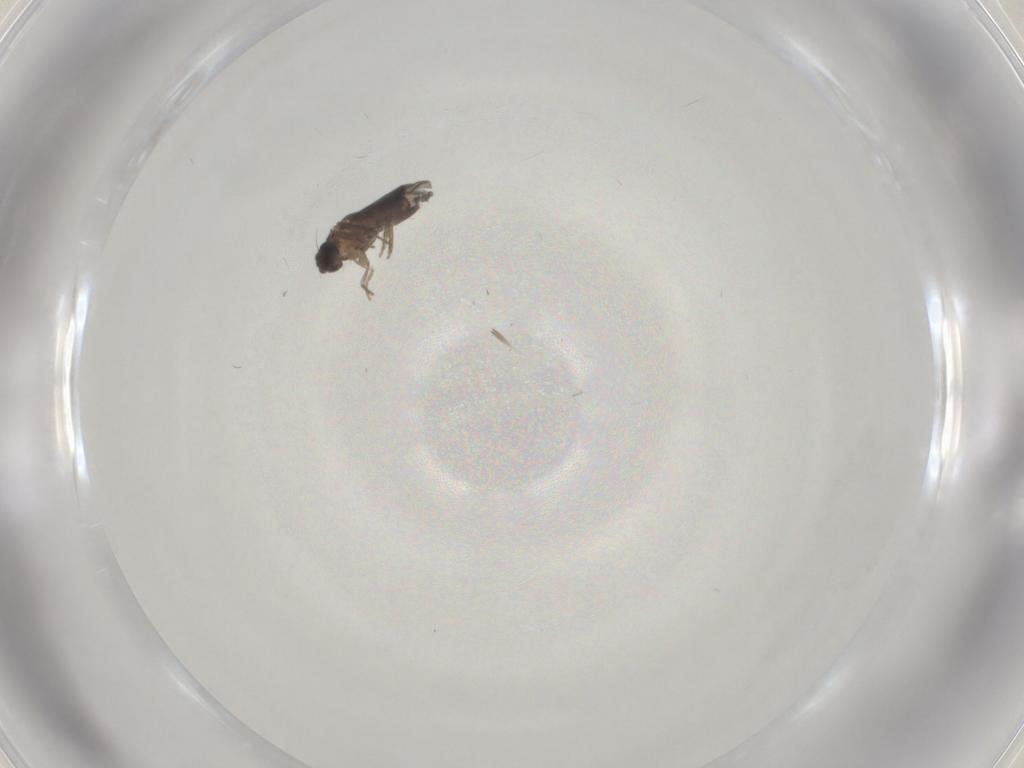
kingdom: Animalia
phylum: Arthropoda
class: Insecta
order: Diptera
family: Chironomidae
